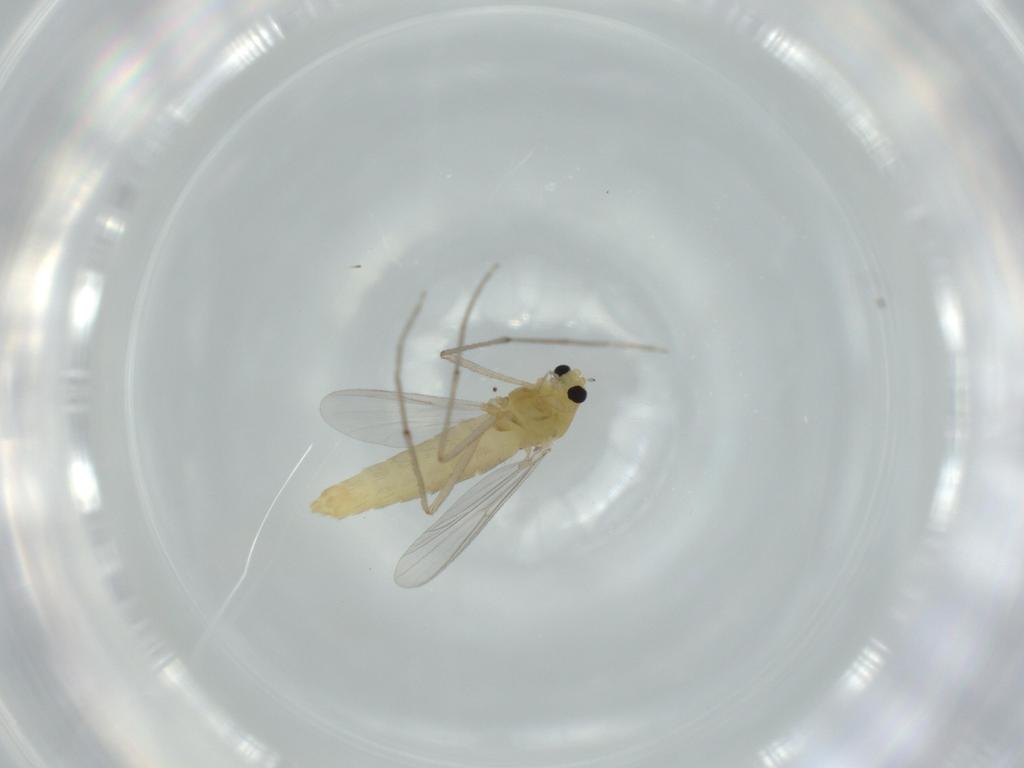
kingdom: Animalia
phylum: Arthropoda
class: Insecta
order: Diptera
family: Chironomidae
